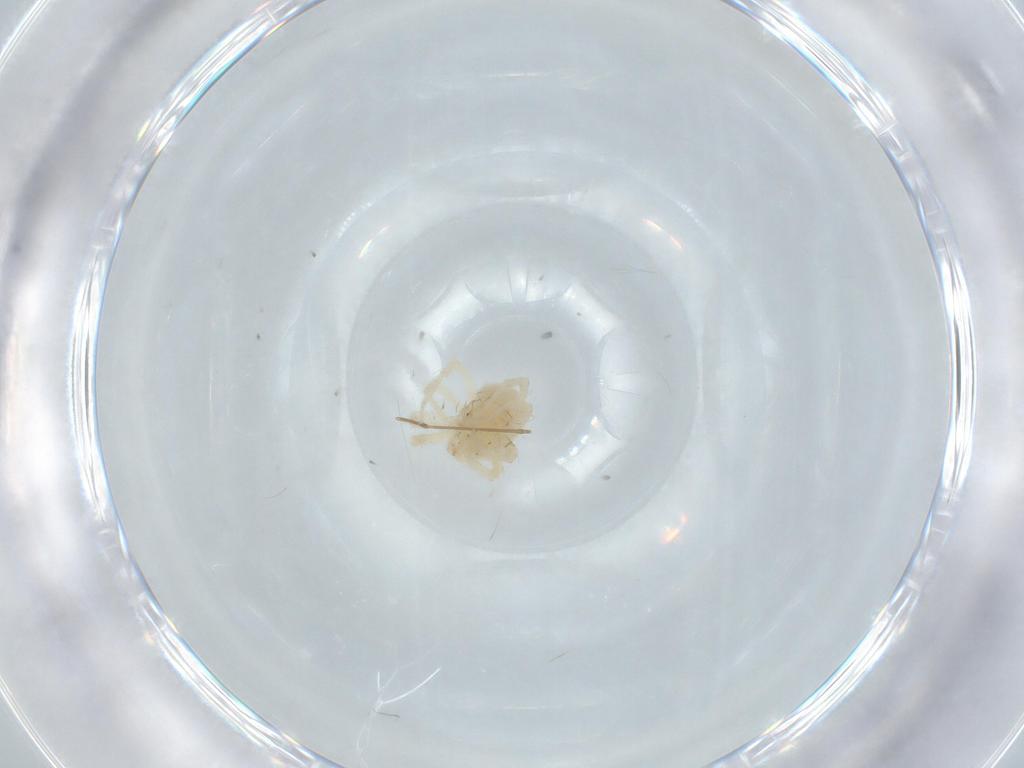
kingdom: Animalia
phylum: Arthropoda
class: Arachnida
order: Trombidiformes
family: Anystidae
